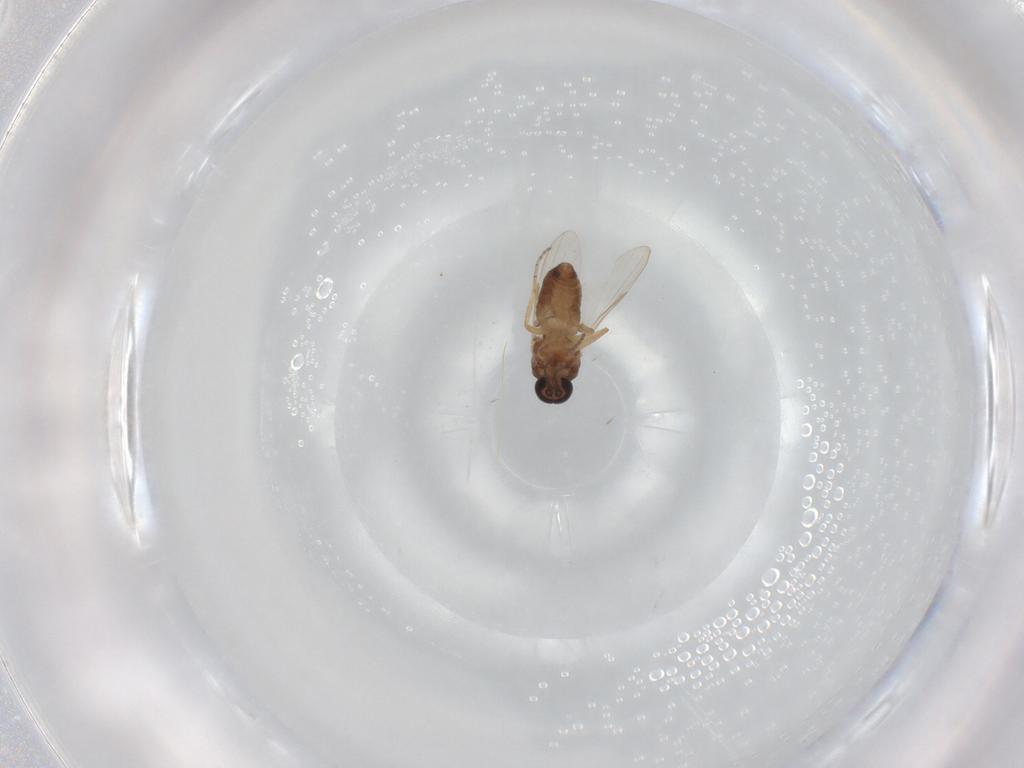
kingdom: Animalia
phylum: Arthropoda
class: Insecta
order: Diptera
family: Ceratopogonidae
